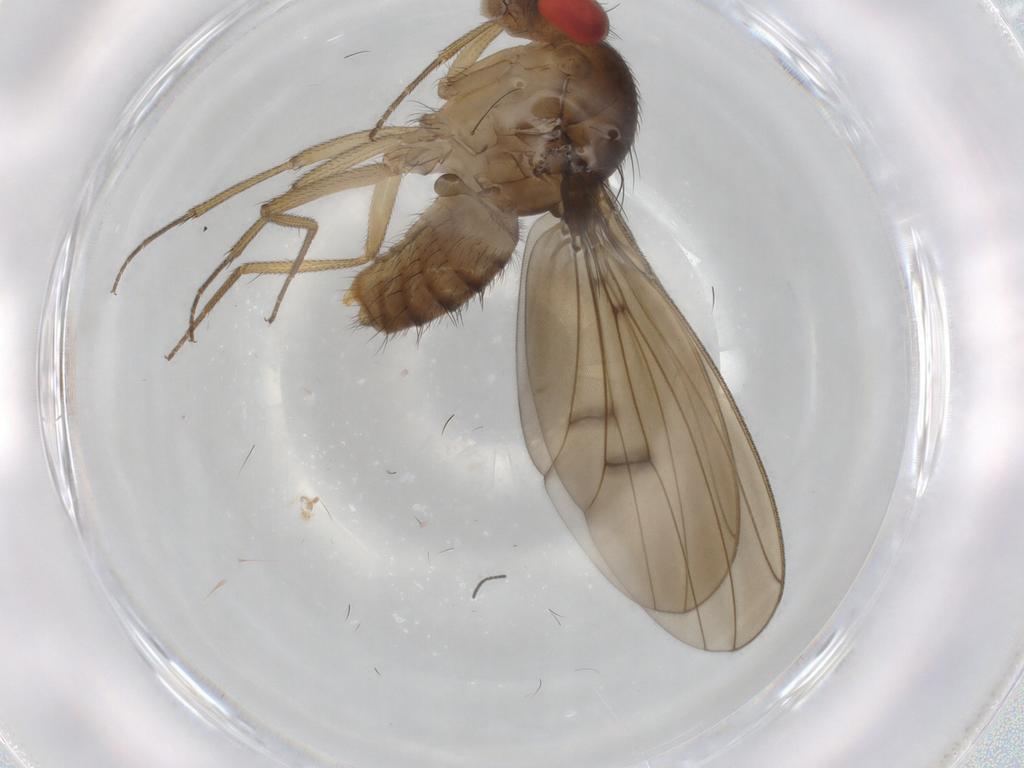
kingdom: Animalia
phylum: Arthropoda
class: Insecta
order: Diptera
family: Drosophilidae
